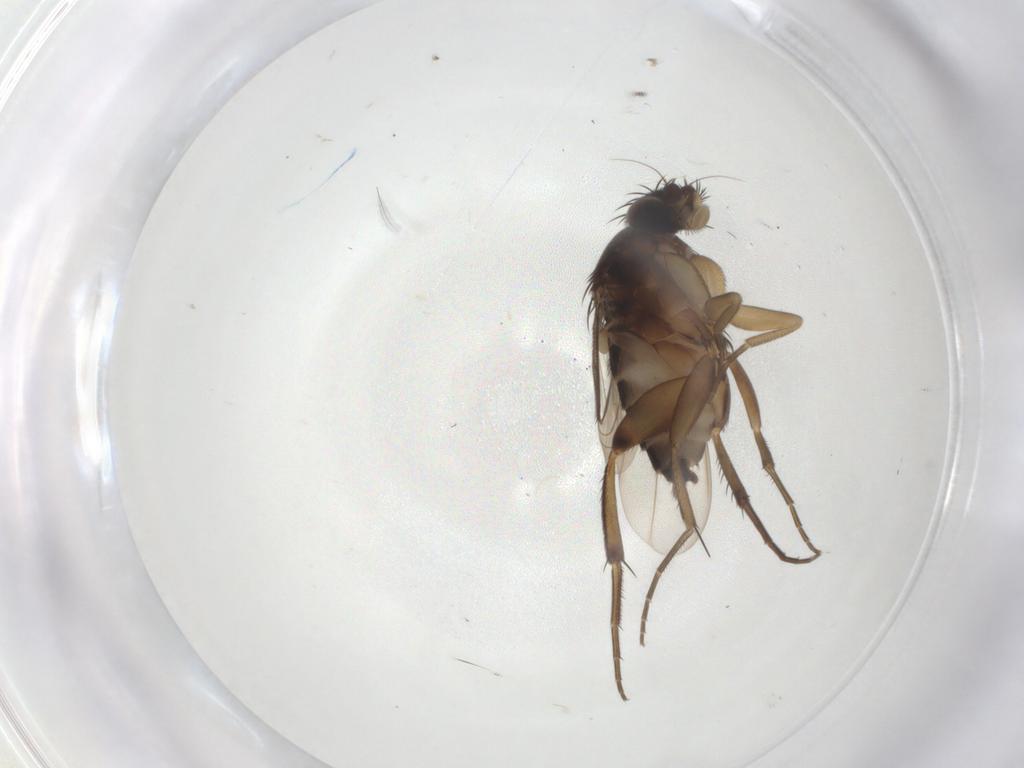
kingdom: Animalia
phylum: Arthropoda
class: Insecta
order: Diptera
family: Phoridae
